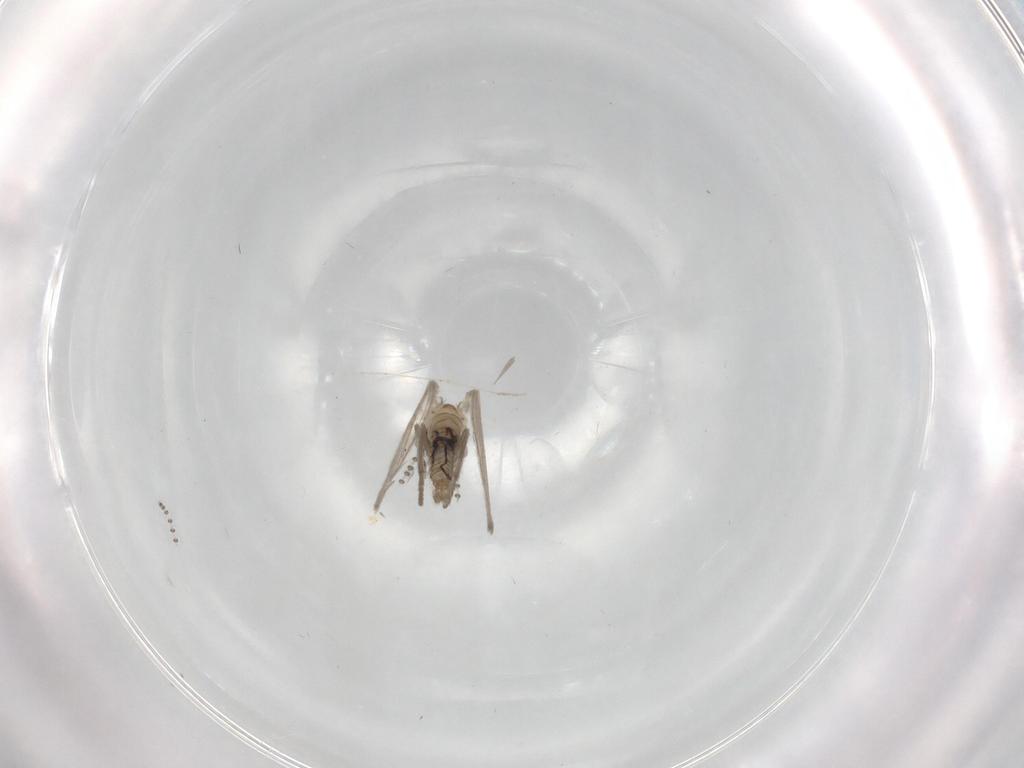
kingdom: Animalia
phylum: Arthropoda
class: Insecta
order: Diptera
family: Psychodidae
